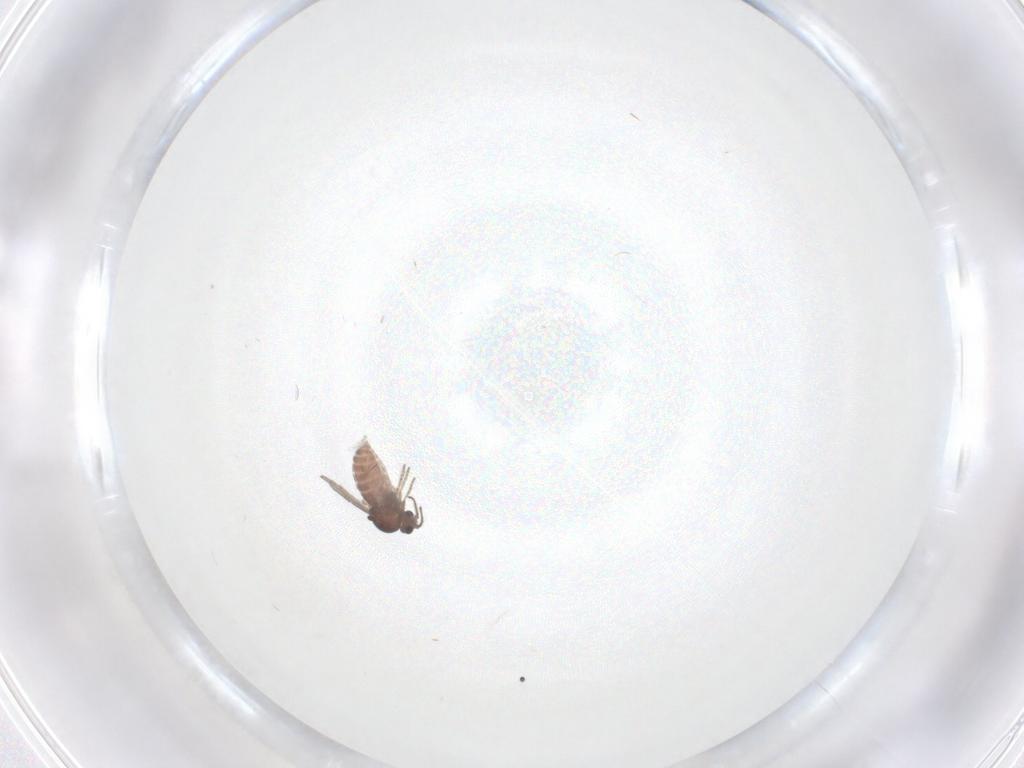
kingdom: Animalia
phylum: Arthropoda
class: Insecta
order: Diptera
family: Ceratopogonidae
